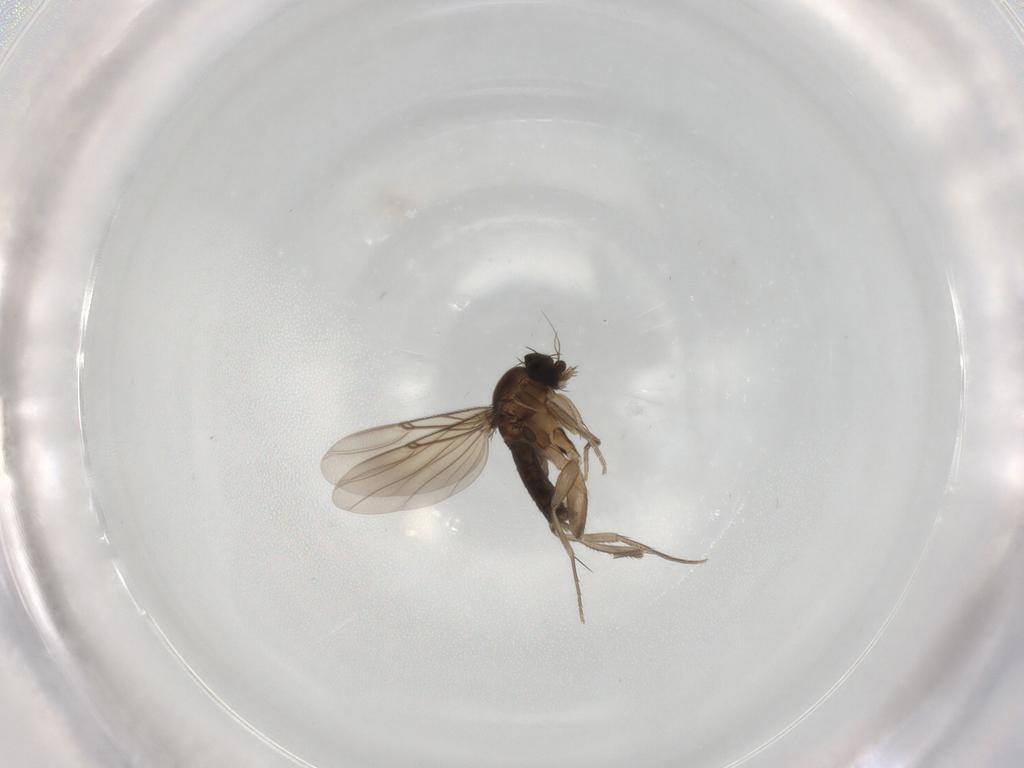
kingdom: Animalia
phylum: Arthropoda
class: Insecta
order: Diptera
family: Phoridae
